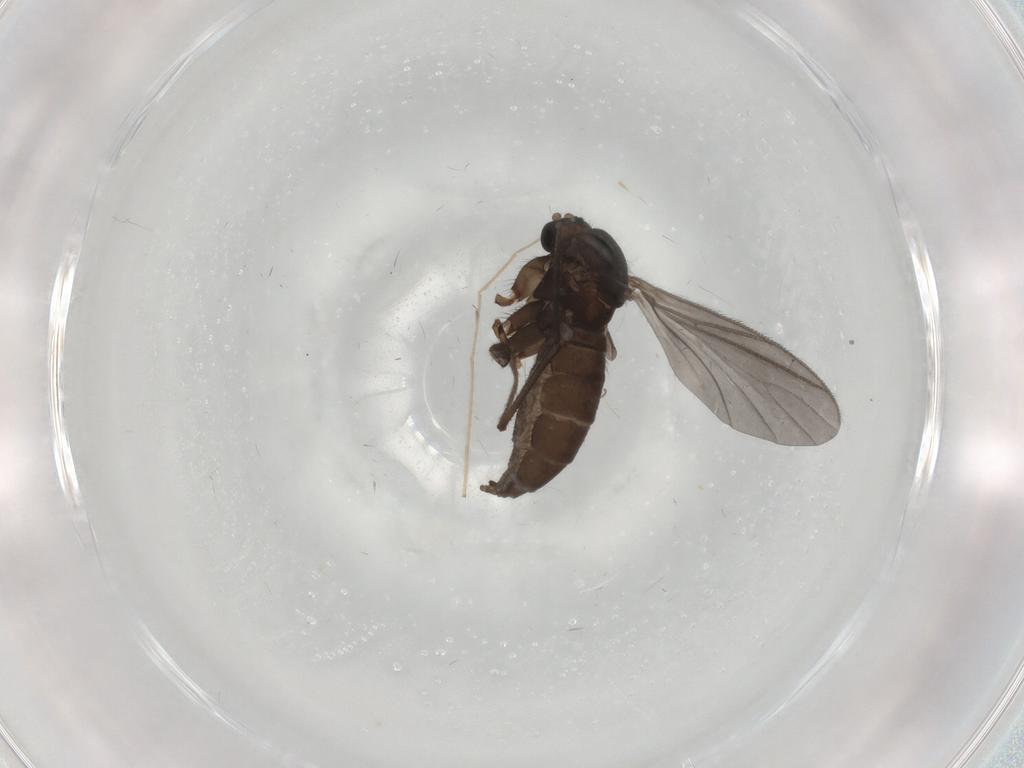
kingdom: Animalia
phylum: Arthropoda
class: Insecta
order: Diptera
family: Sciaridae
